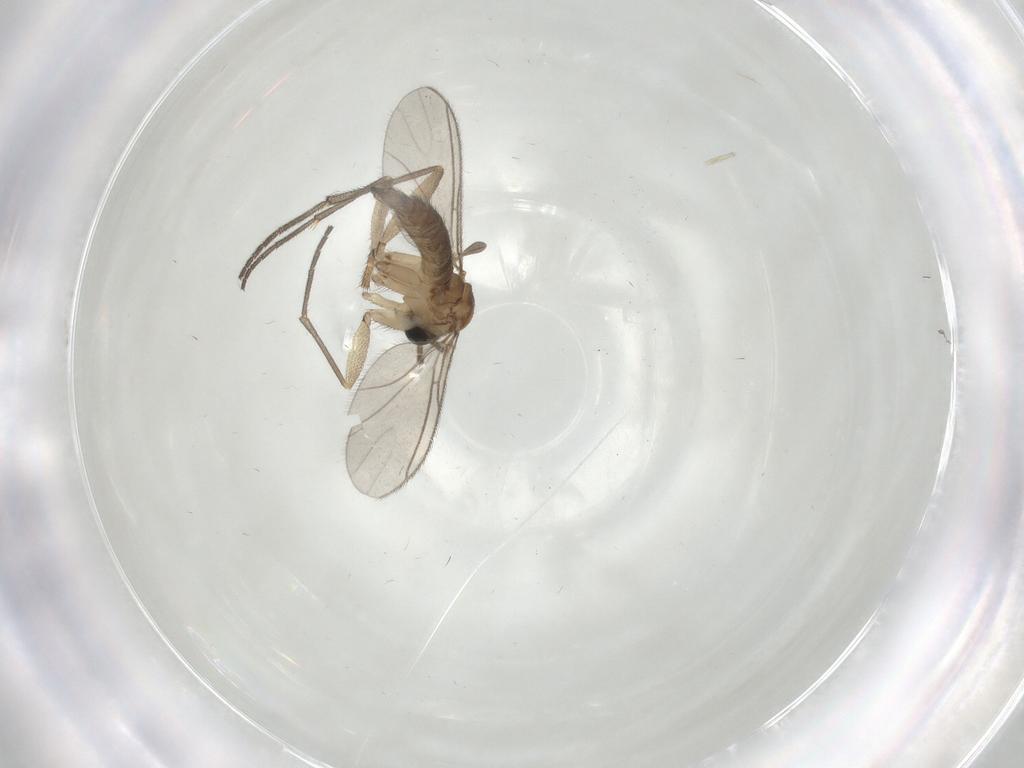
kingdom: Animalia
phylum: Arthropoda
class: Insecta
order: Diptera
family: Sciaridae
